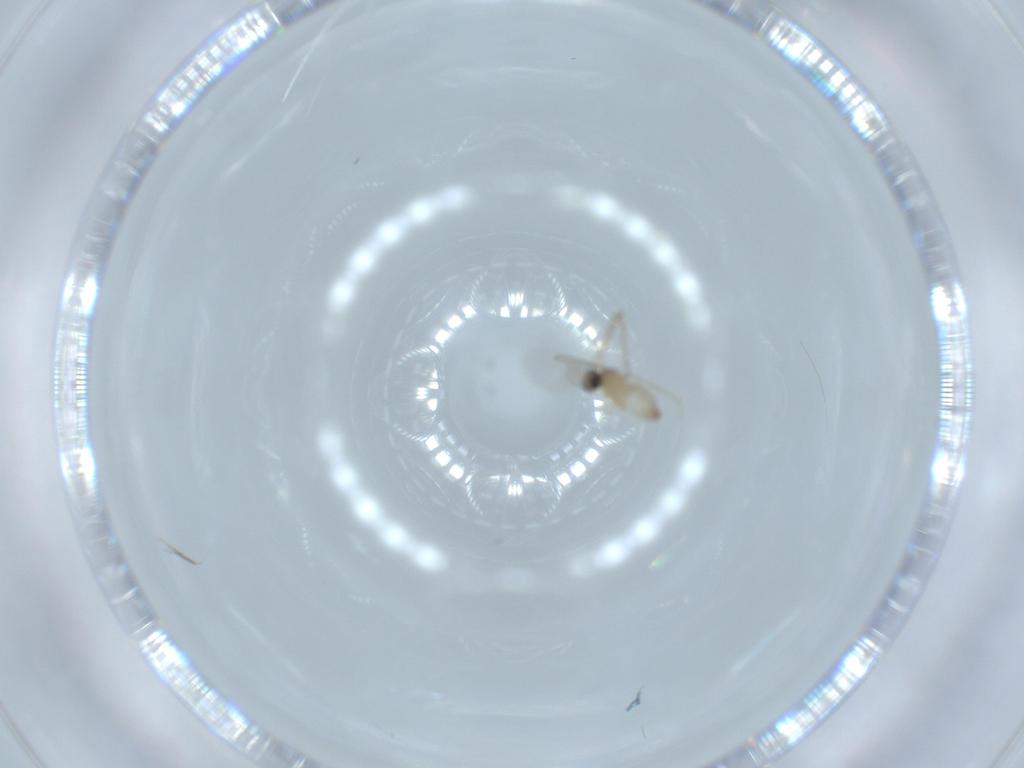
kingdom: Animalia
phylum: Arthropoda
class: Insecta
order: Diptera
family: Cecidomyiidae
